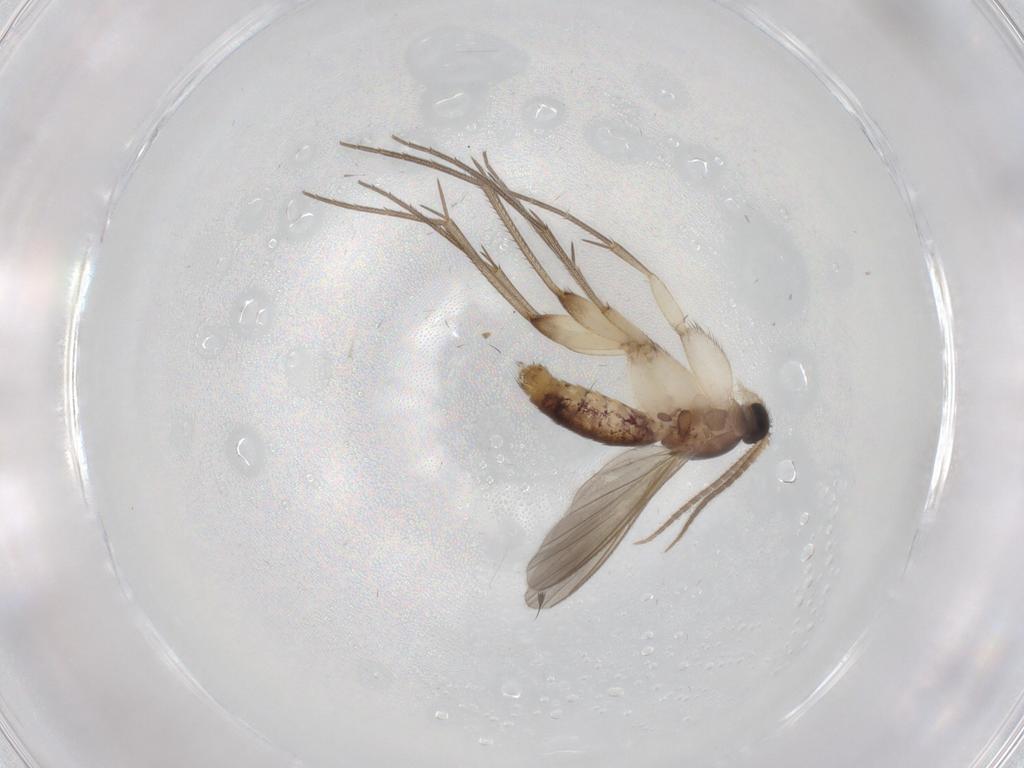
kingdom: Animalia
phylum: Arthropoda
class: Insecta
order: Diptera
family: Mycetophilidae
